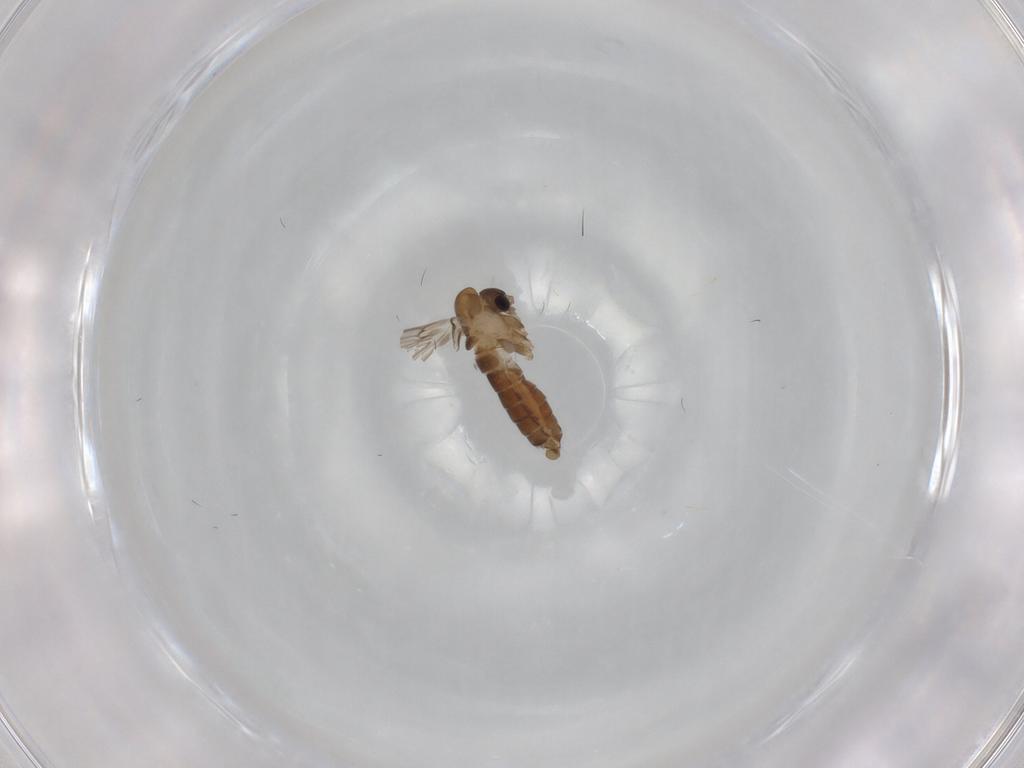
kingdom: Animalia
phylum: Arthropoda
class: Insecta
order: Diptera
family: Psychodidae
